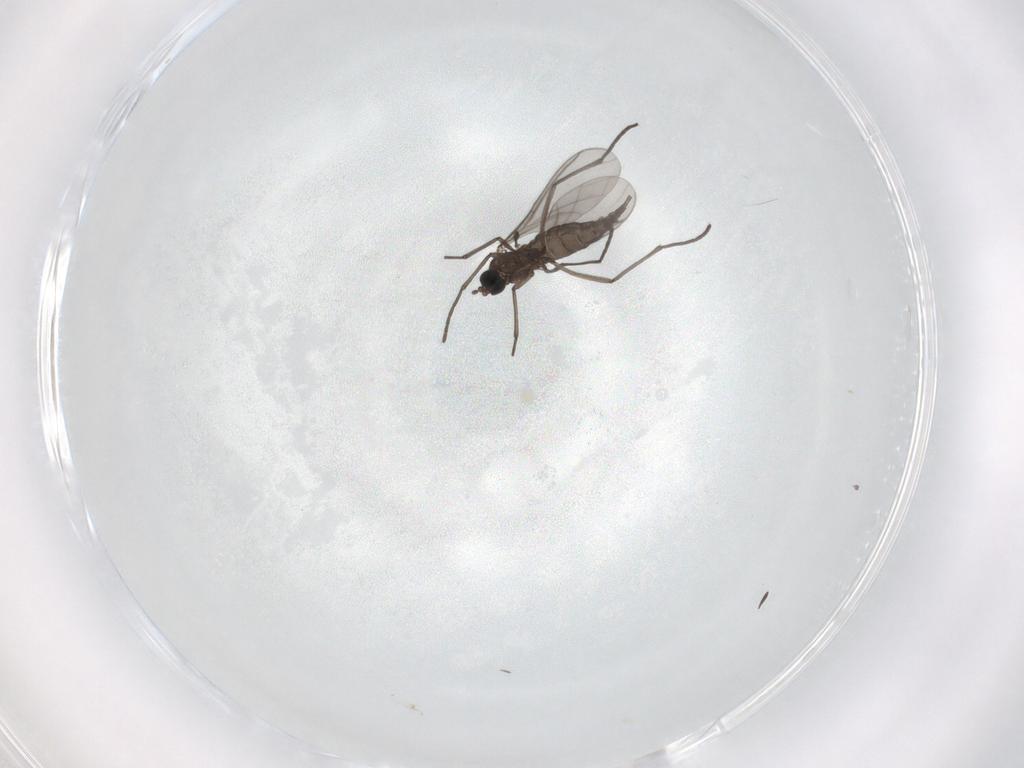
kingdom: Animalia
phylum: Arthropoda
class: Insecta
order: Diptera
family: Sciaridae
